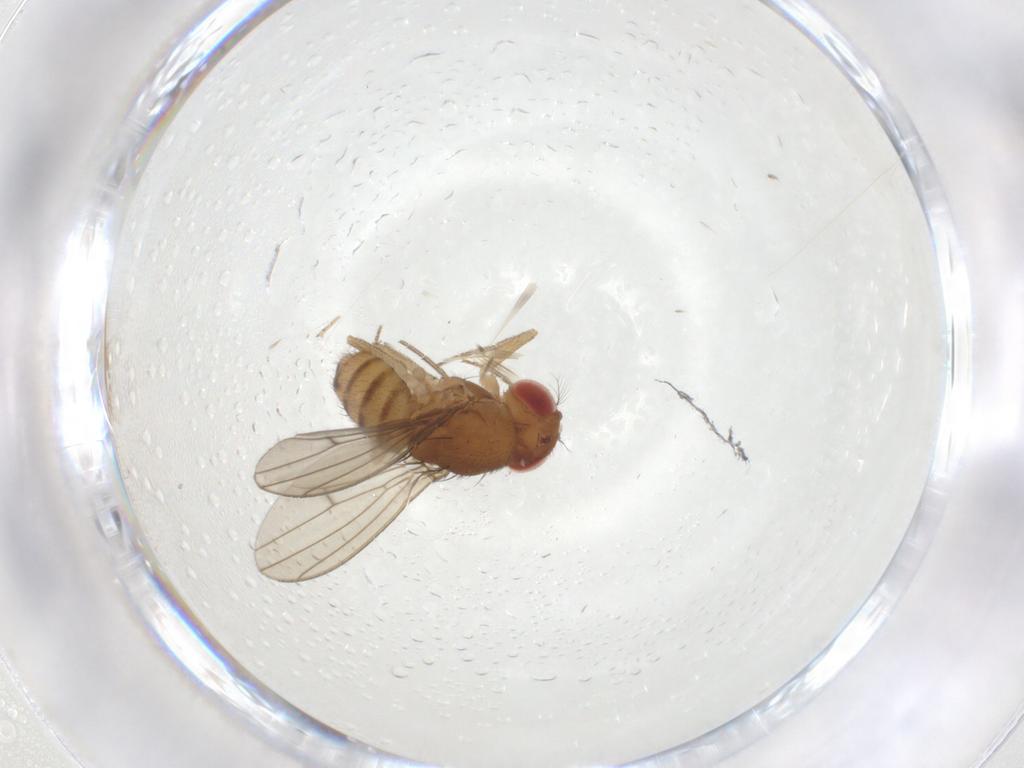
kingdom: Animalia
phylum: Arthropoda
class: Insecta
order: Diptera
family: Drosophilidae
